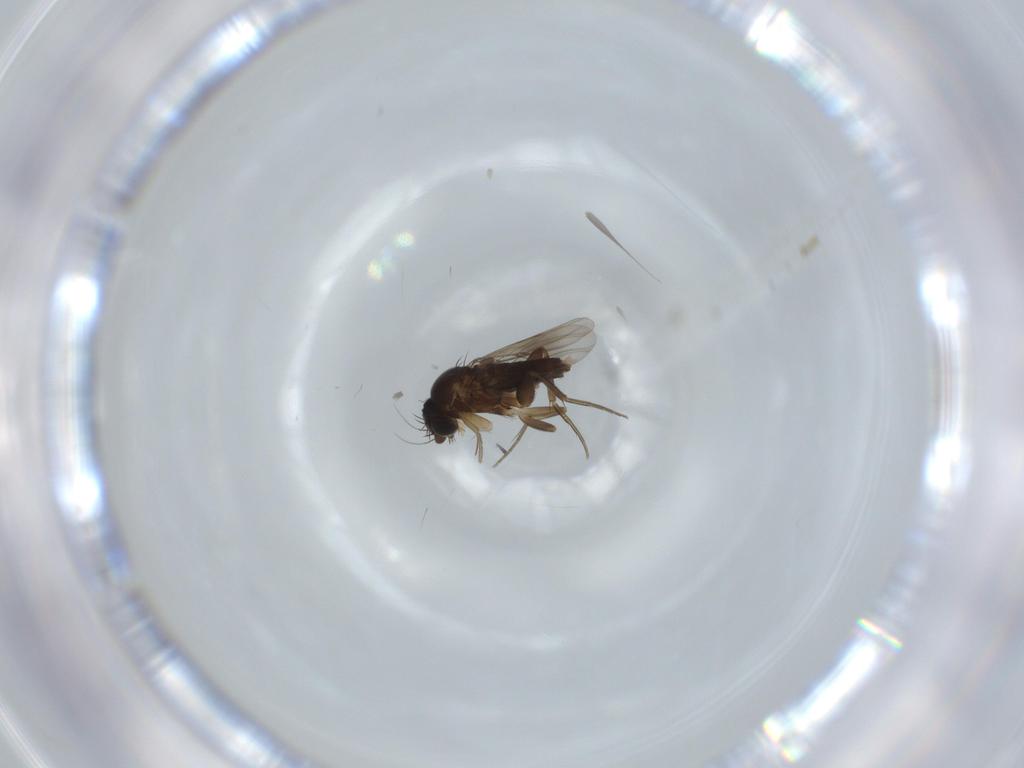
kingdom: Animalia
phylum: Arthropoda
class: Insecta
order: Diptera
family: Phoridae
